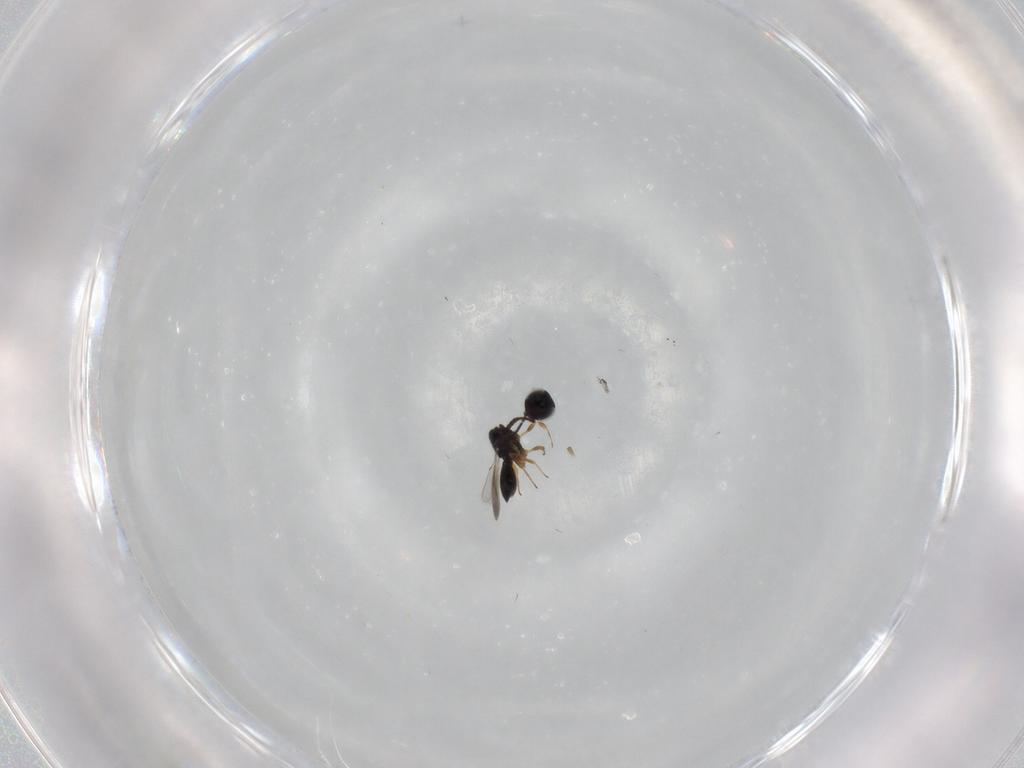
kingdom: Animalia
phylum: Arthropoda
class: Insecta
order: Hymenoptera
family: Scelionidae
